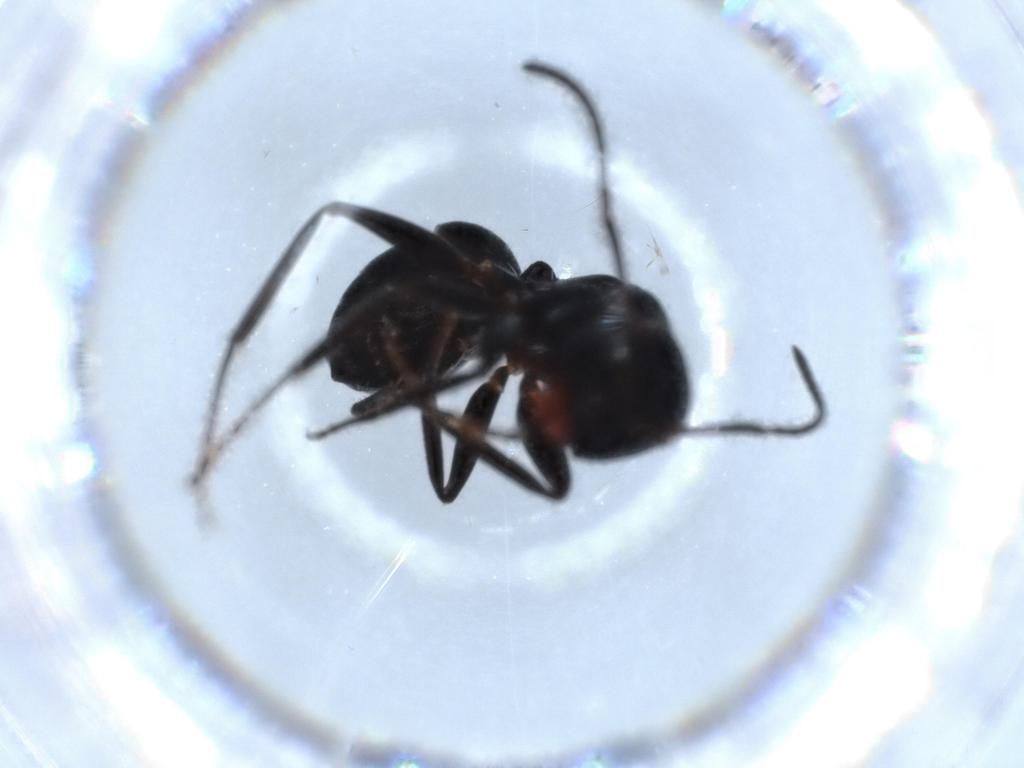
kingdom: Animalia
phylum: Arthropoda
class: Insecta
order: Hymenoptera
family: Formicidae
